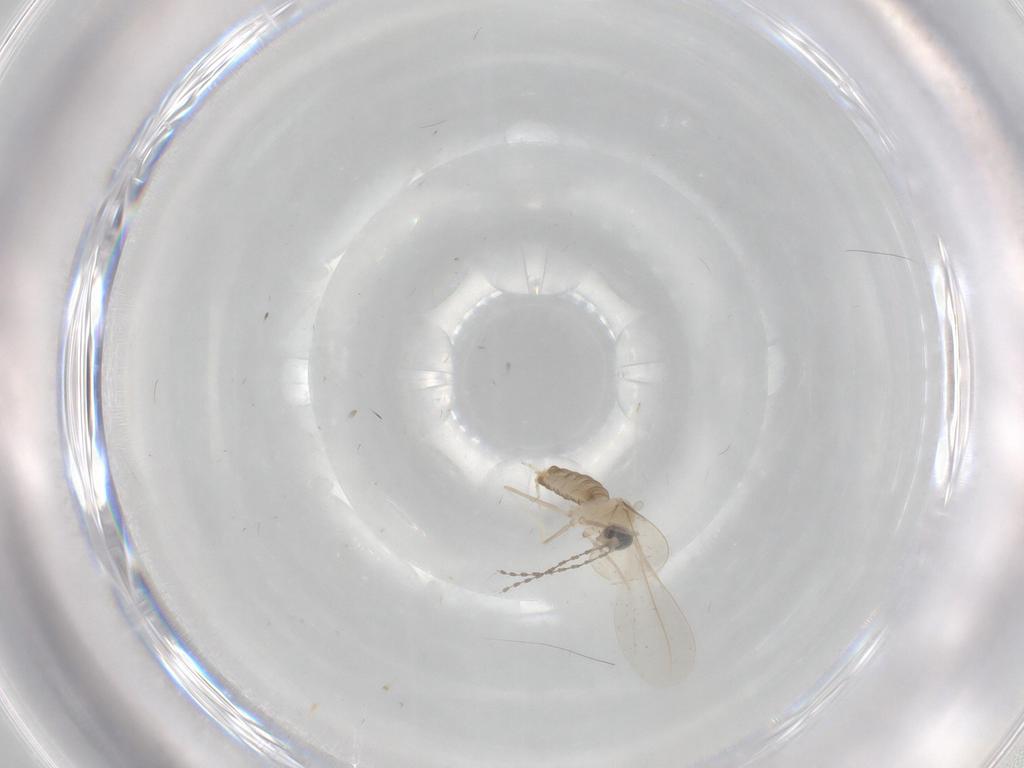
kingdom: Animalia
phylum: Arthropoda
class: Insecta
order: Diptera
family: Cecidomyiidae
